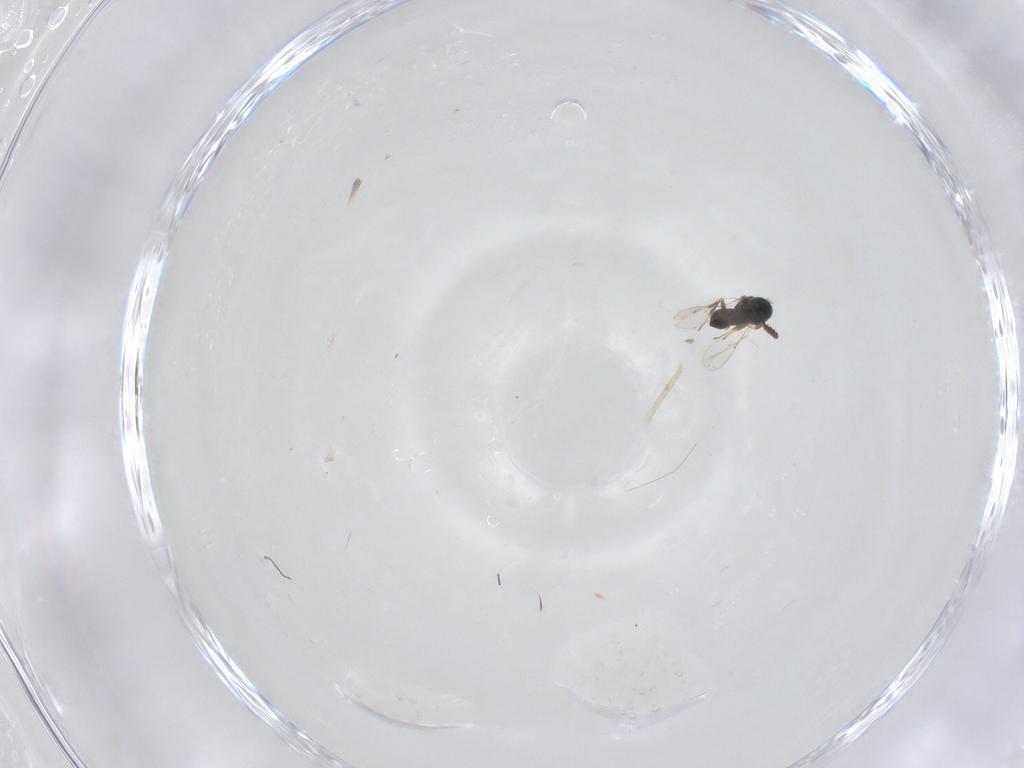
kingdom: Animalia
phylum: Arthropoda
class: Insecta
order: Hymenoptera
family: Scelionidae
